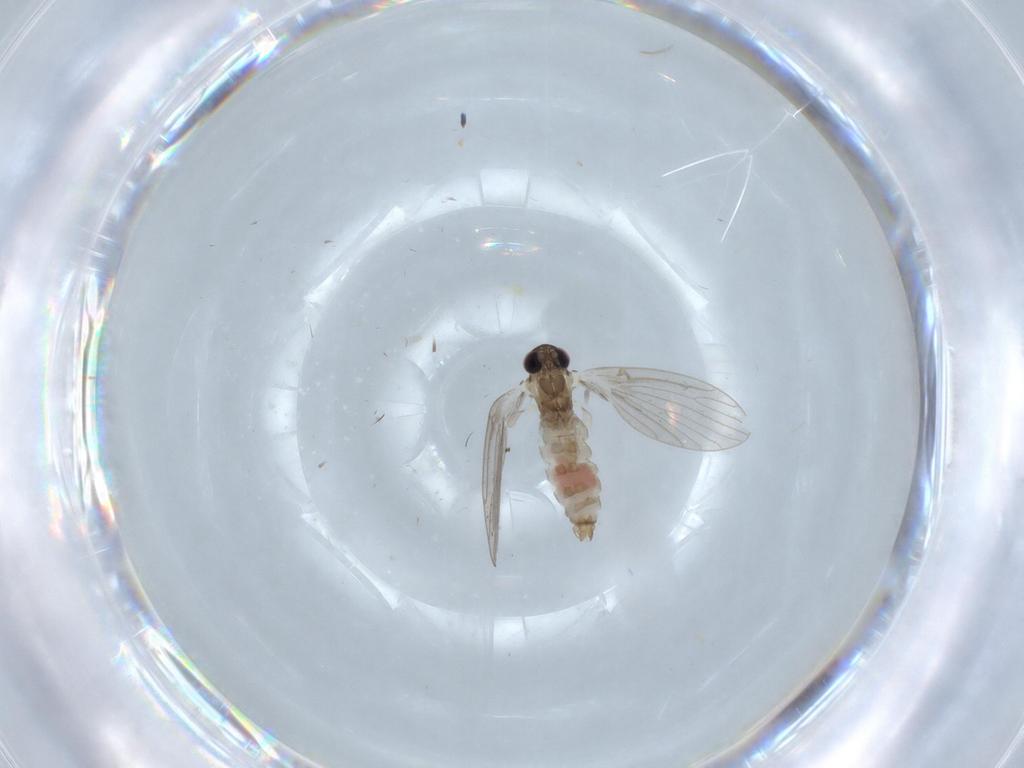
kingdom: Animalia
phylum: Arthropoda
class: Insecta
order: Diptera
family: Psychodidae
